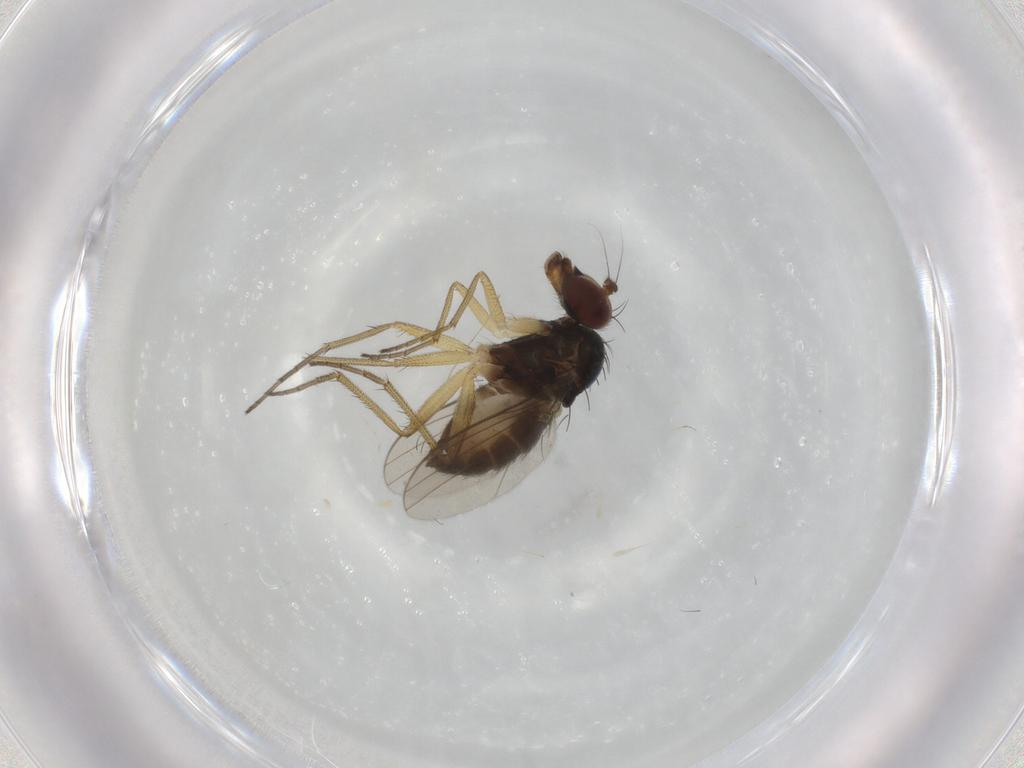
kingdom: Animalia
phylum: Arthropoda
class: Insecta
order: Diptera
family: Dolichopodidae
